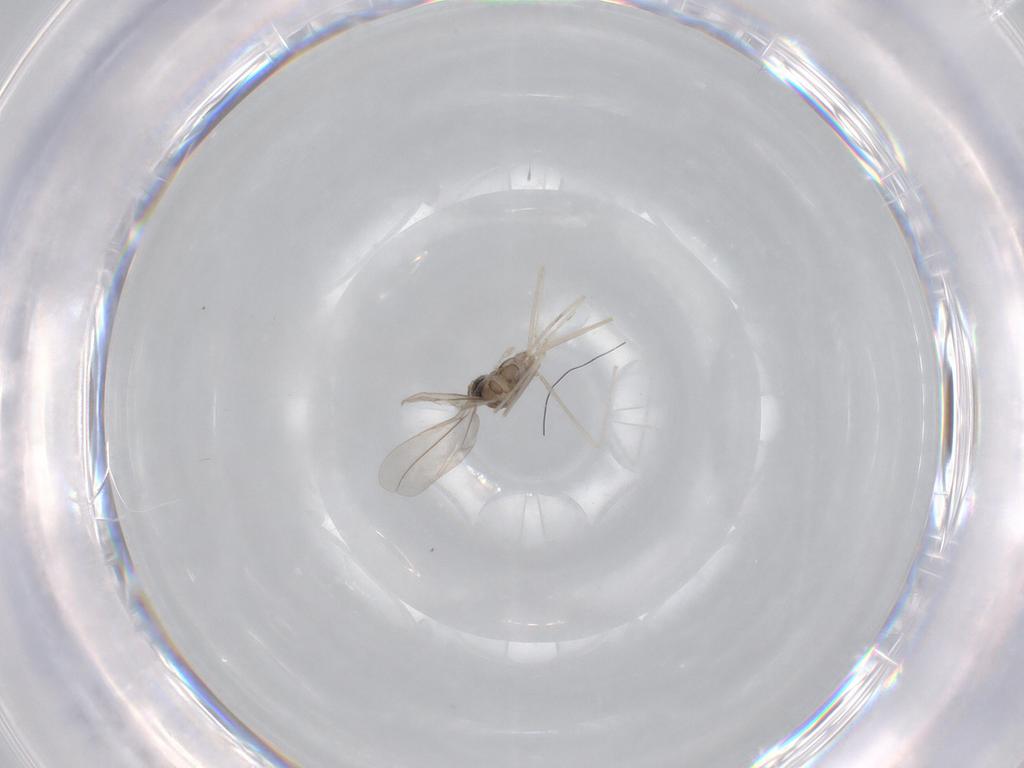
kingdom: Animalia
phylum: Arthropoda
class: Insecta
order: Diptera
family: Cecidomyiidae
